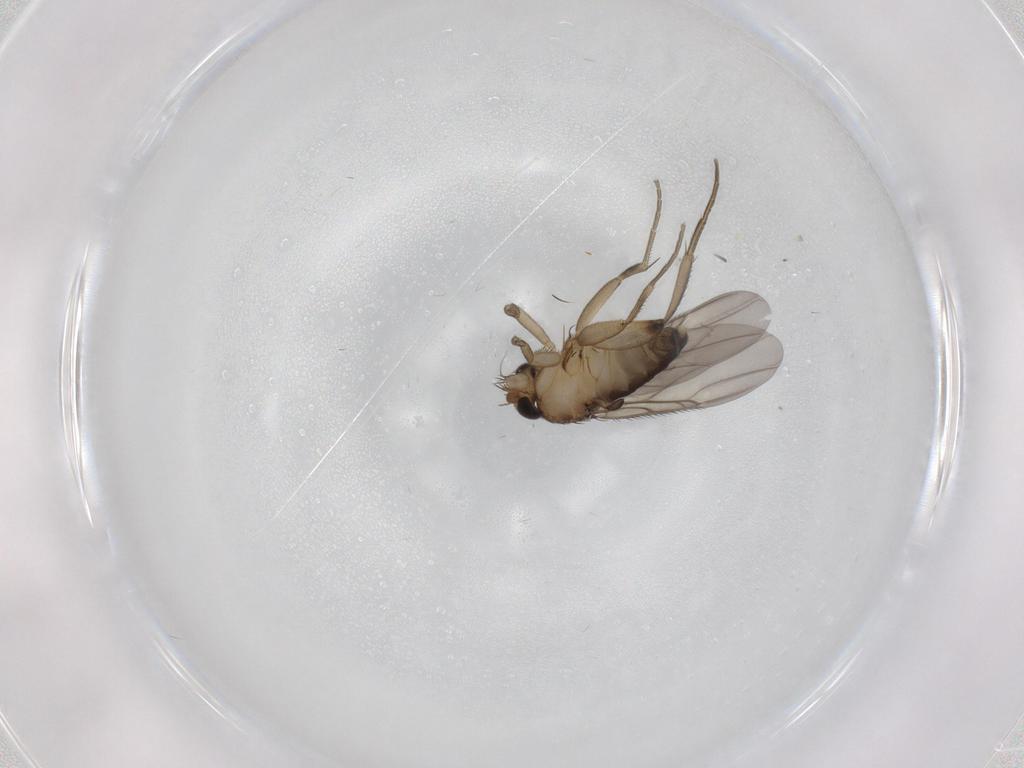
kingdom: Animalia
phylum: Arthropoda
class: Insecta
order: Diptera
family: Phoridae
